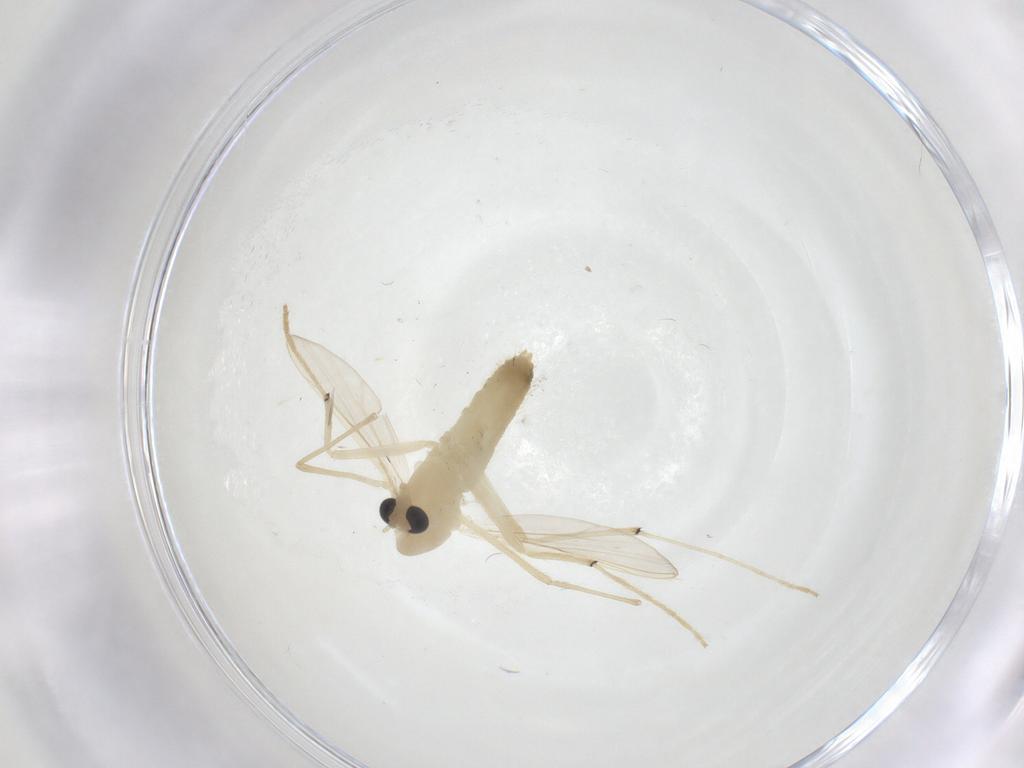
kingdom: Animalia
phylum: Arthropoda
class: Insecta
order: Diptera
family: Chironomidae
